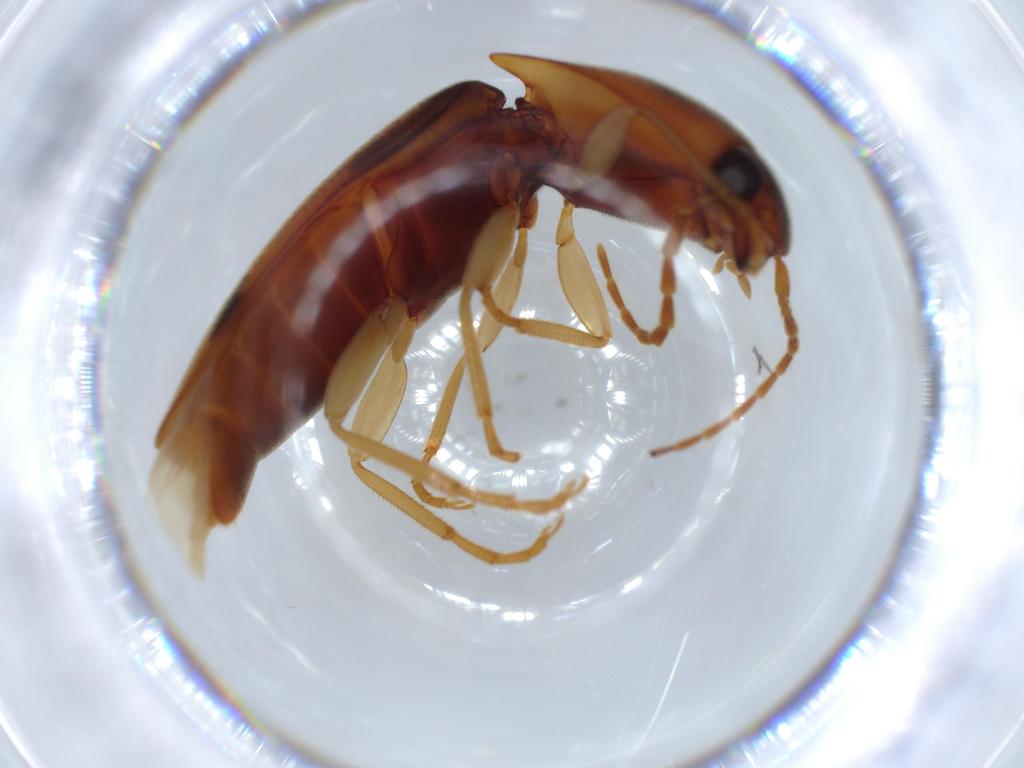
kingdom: Animalia
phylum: Arthropoda
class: Insecta
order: Coleoptera
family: Elateridae
